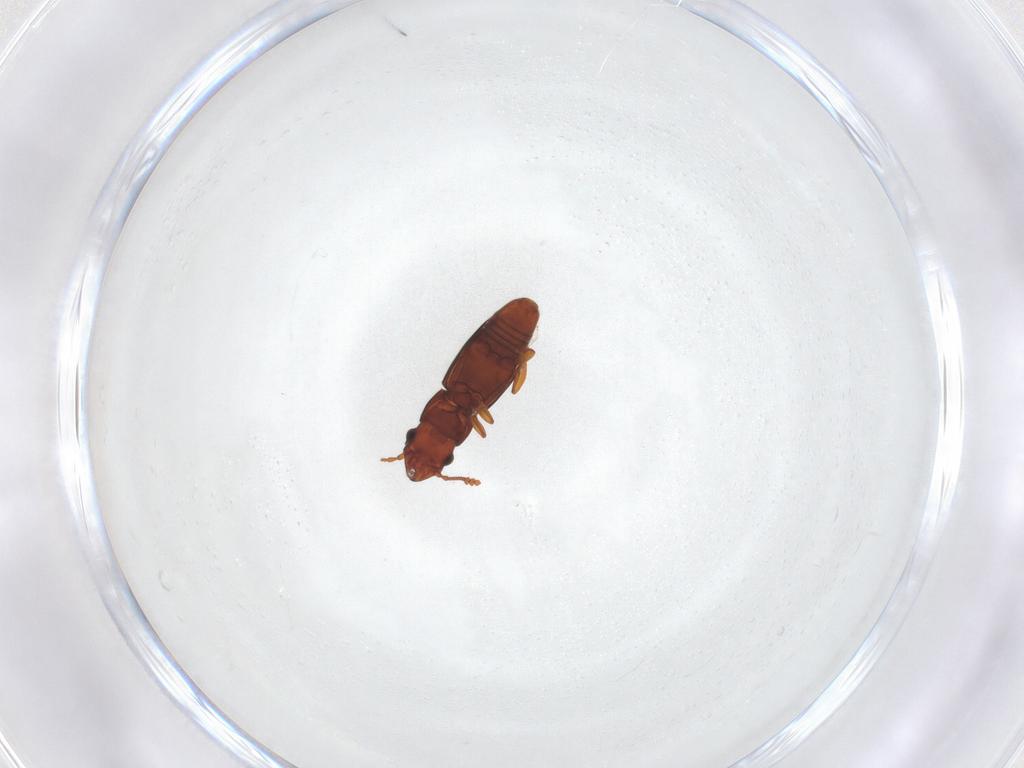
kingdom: Animalia
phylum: Arthropoda
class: Insecta
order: Coleoptera
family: Smicripidae
